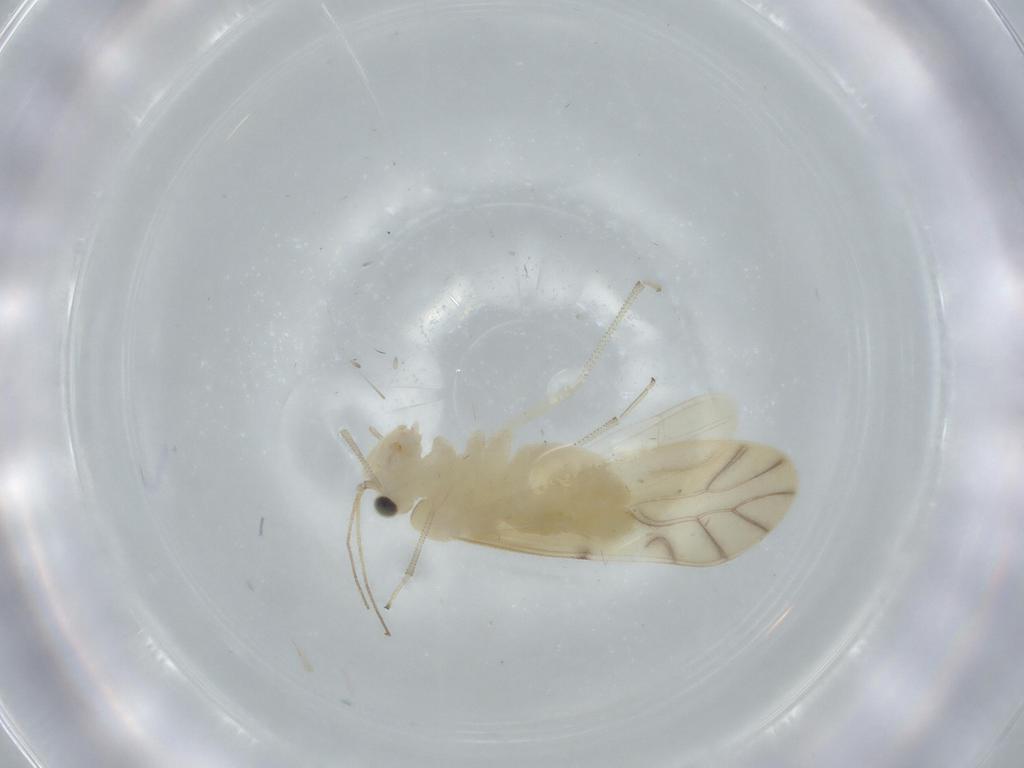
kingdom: Animalia
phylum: Arthropoda
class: Insecta
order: Psocodea
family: Caeciliusidae
